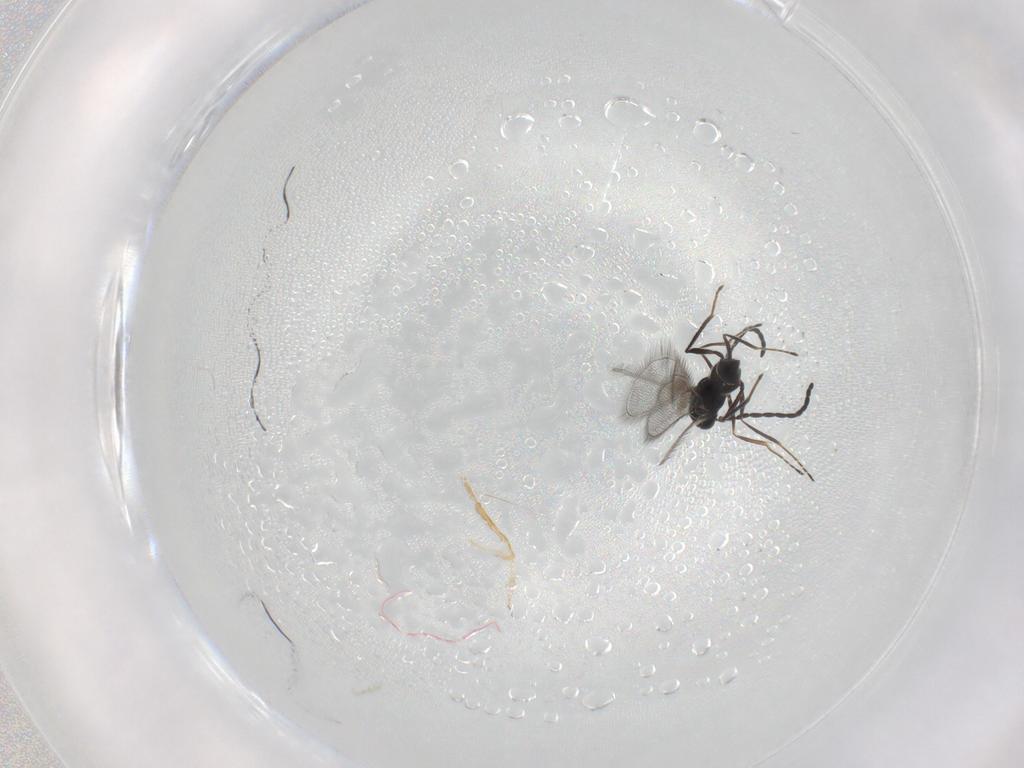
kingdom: Animalia
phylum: Arthropoda
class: Insecta
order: Hymenoptera
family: Mymaridae
